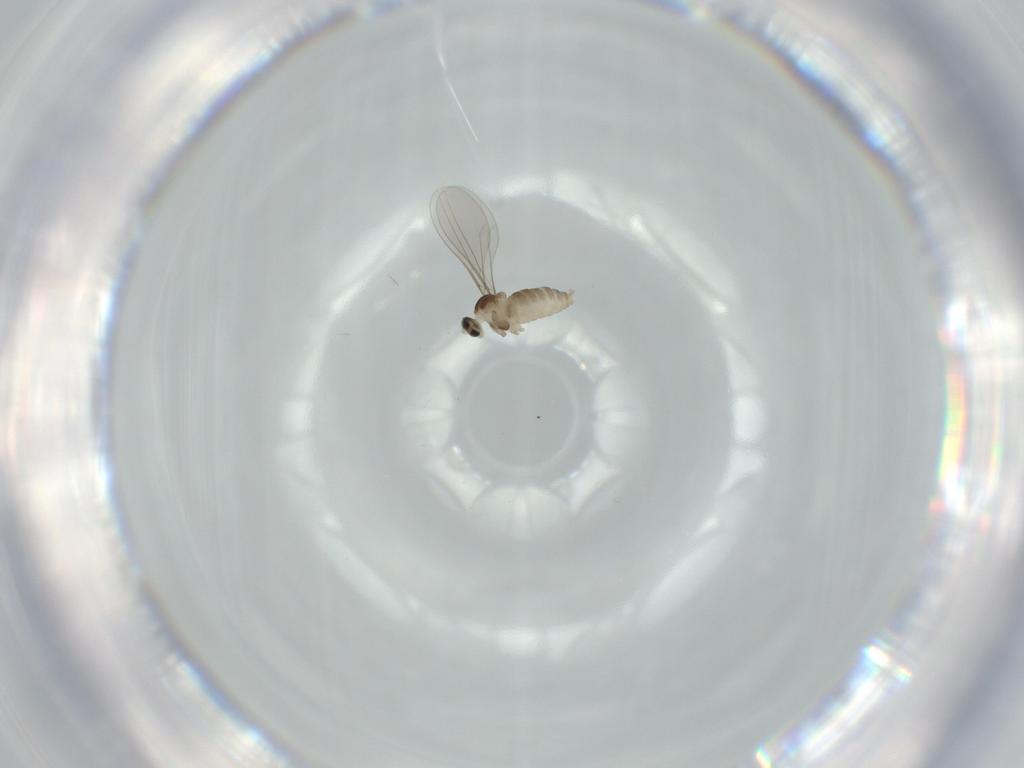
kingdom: Animalia
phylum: Arthropoda
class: Insecta
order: Diptera
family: Cecidomyiidae
